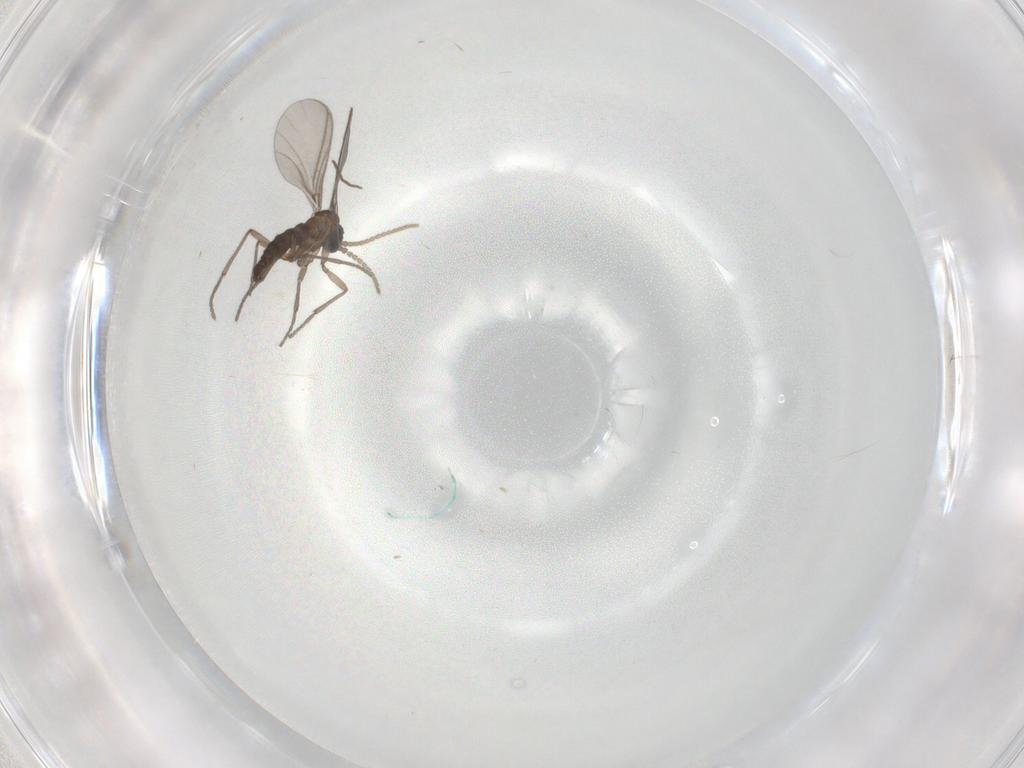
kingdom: Animalia
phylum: Arthropoda
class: Insecta
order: Diptera
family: Sciaridae
